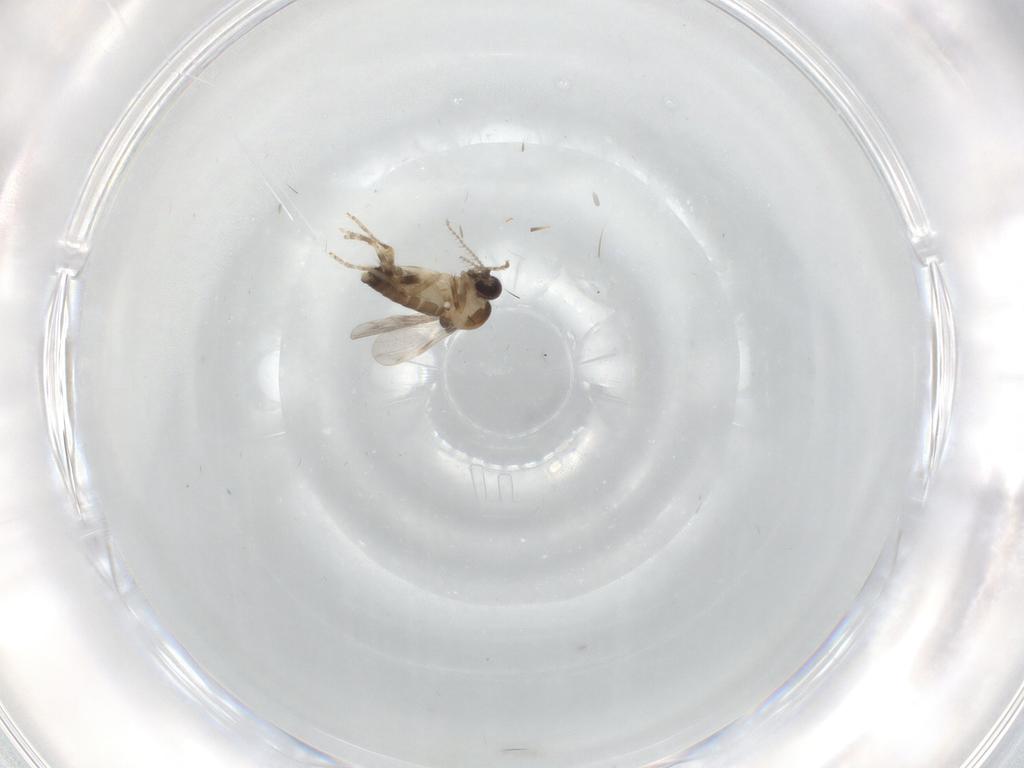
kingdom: Animalia
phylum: Arthropoda
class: Insecta
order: Diptera
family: Ceratopogonidae
